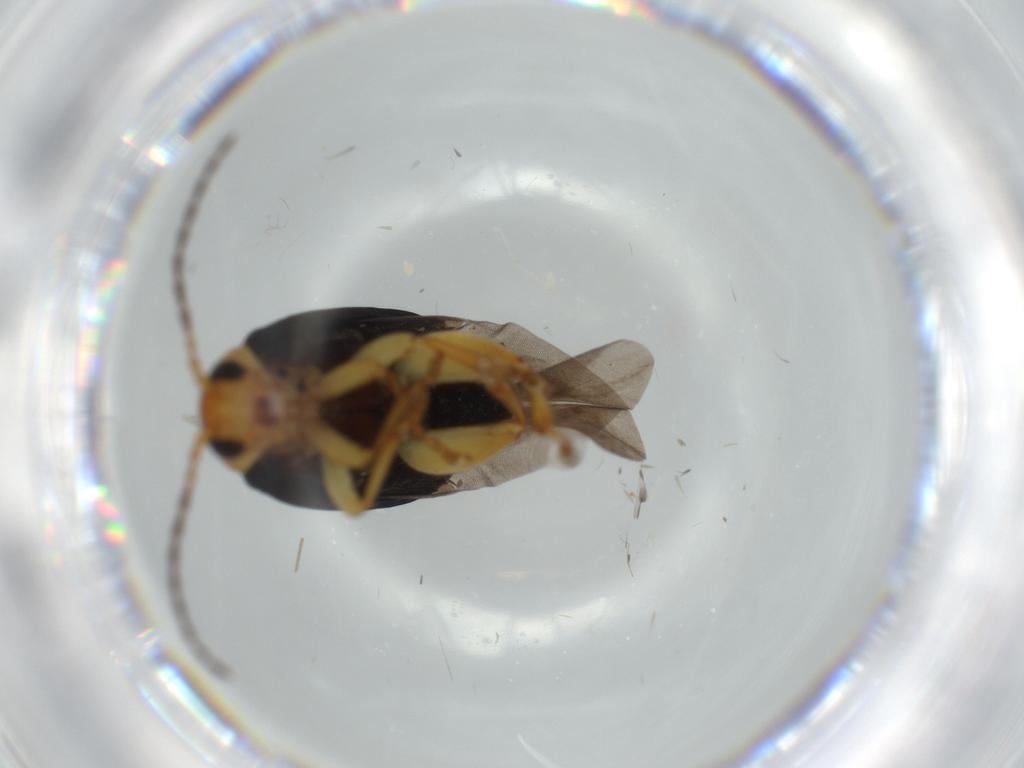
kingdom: Animalia
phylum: Arthropoda
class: Insecta
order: Coleoptera
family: Chrysomelidae
